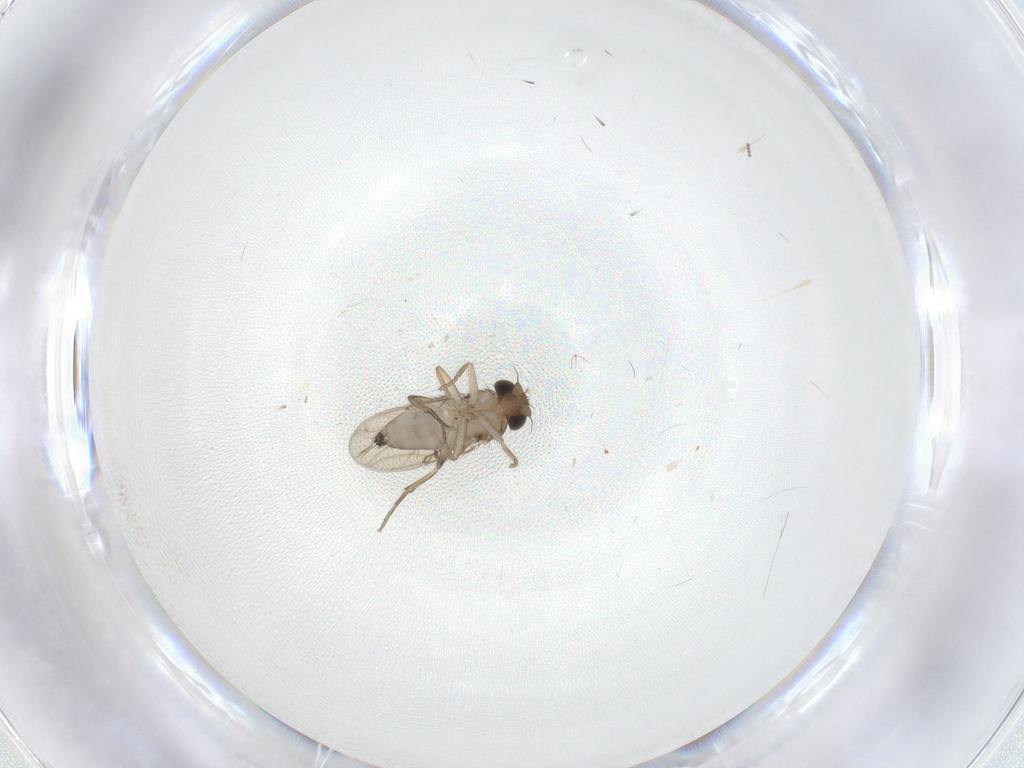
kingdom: Animalia
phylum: Arthropoda
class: Insecta
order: Diptera
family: Phoridae
